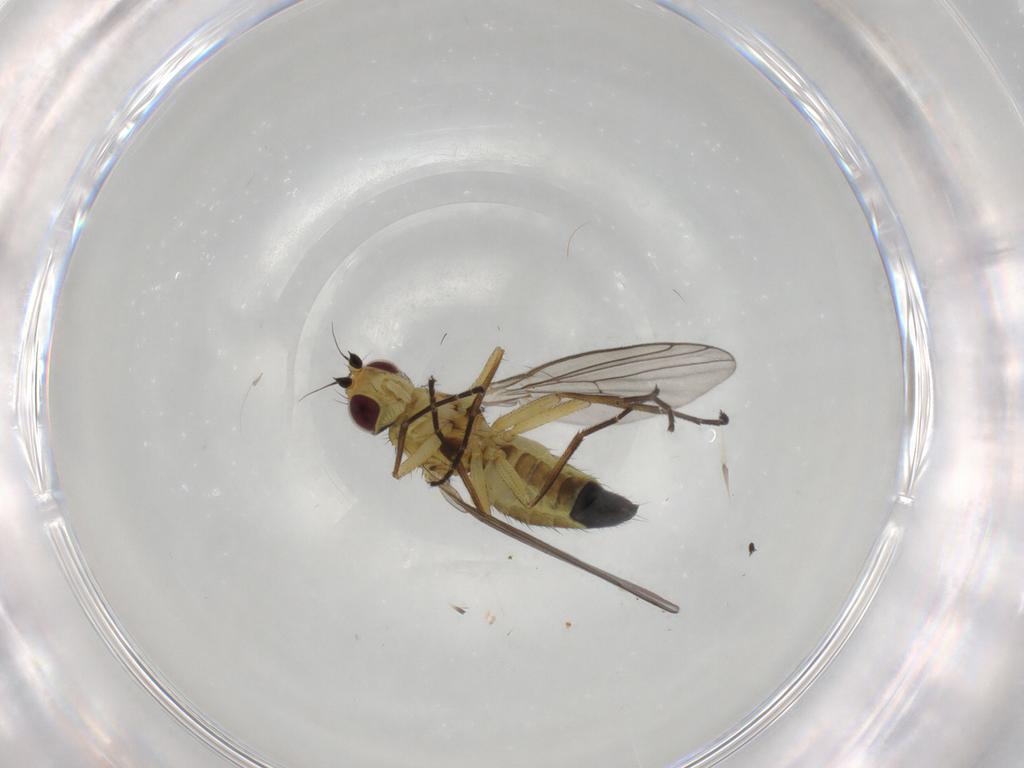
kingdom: Animalia
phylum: Arthropoda
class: Insecta
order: Diptera
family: Agromyzidae
